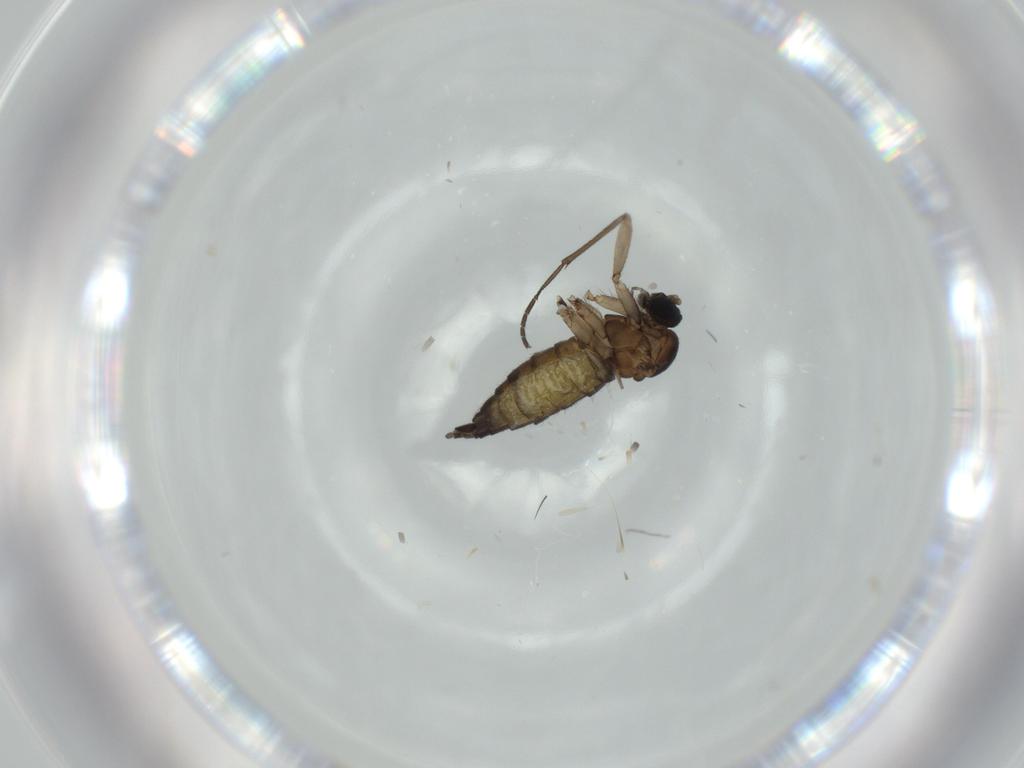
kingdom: Animalia
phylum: Arthropoda
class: Insecta
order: Diptera
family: Sciaridae
